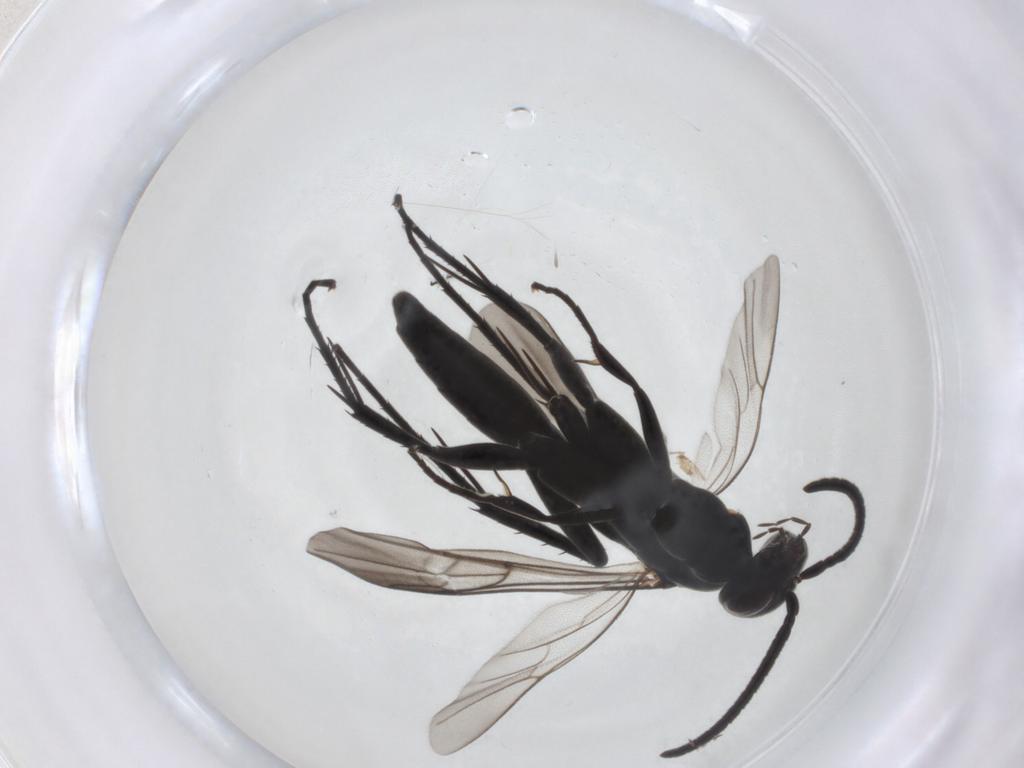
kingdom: Animalia
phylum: Arthropoda
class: Insecta
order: Hymenoptera
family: Pompilidae
